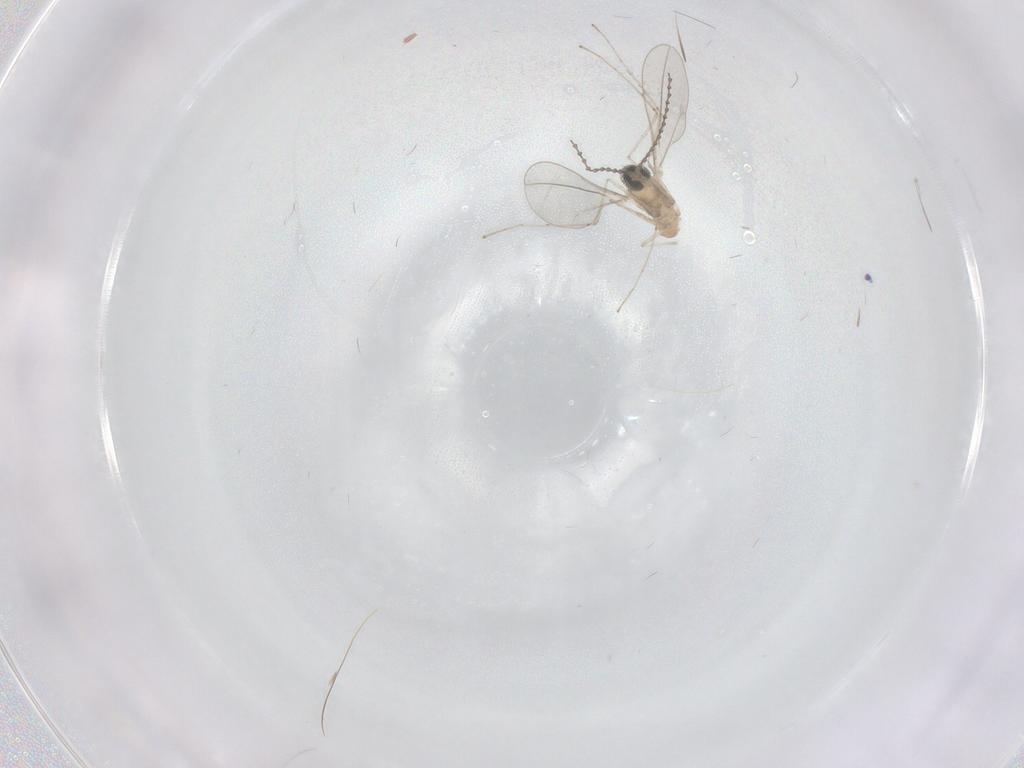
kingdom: Animalia
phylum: Arthropoda
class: Insecta
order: Diptera
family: Cecidomyiidae
